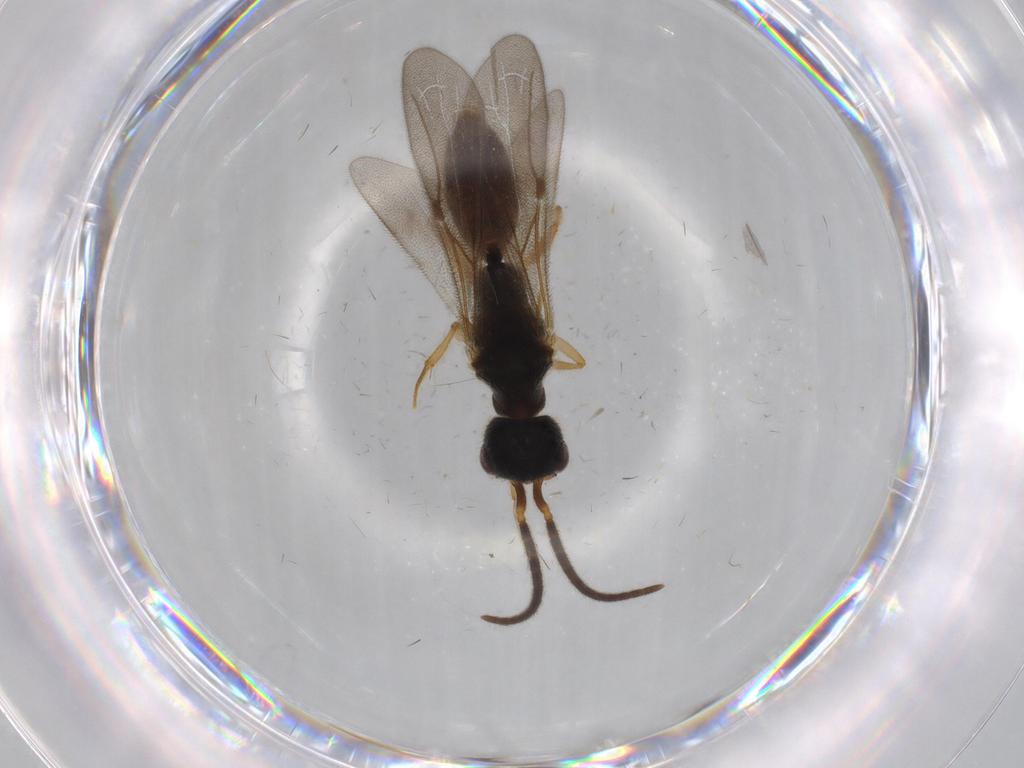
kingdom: Animalia
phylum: Arthropoda
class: Insecta
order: Hymenoptera
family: Bethylidae
